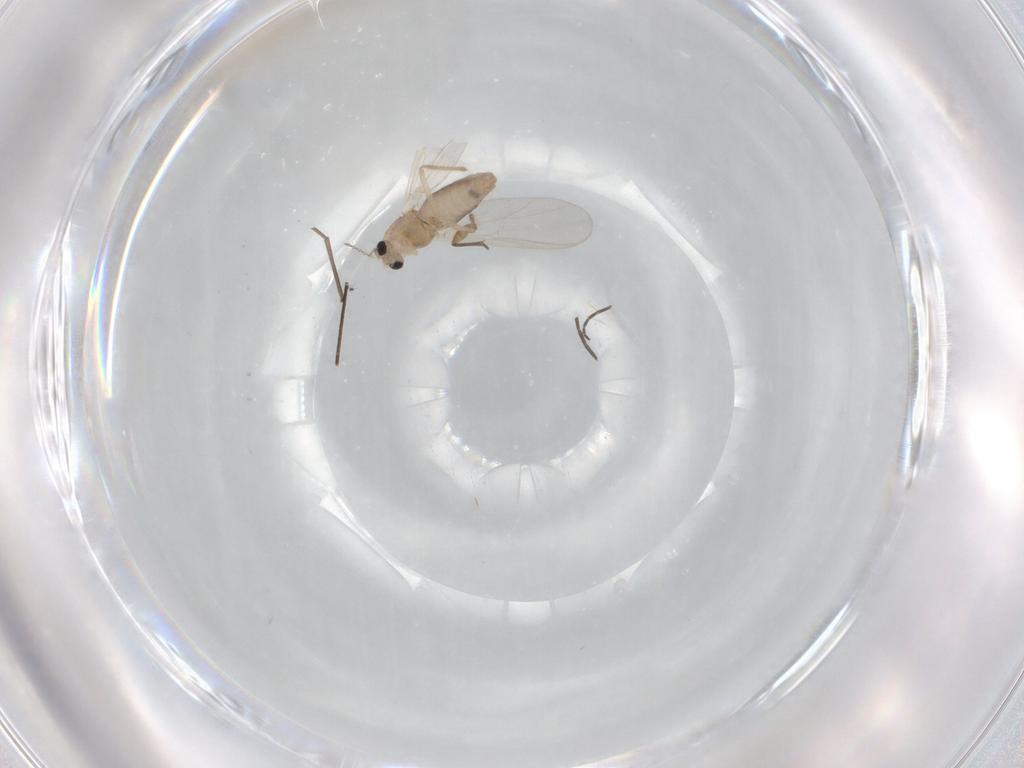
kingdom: Animalia
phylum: Arthropoda
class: Insecta
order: Diptera
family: Chironomidae
